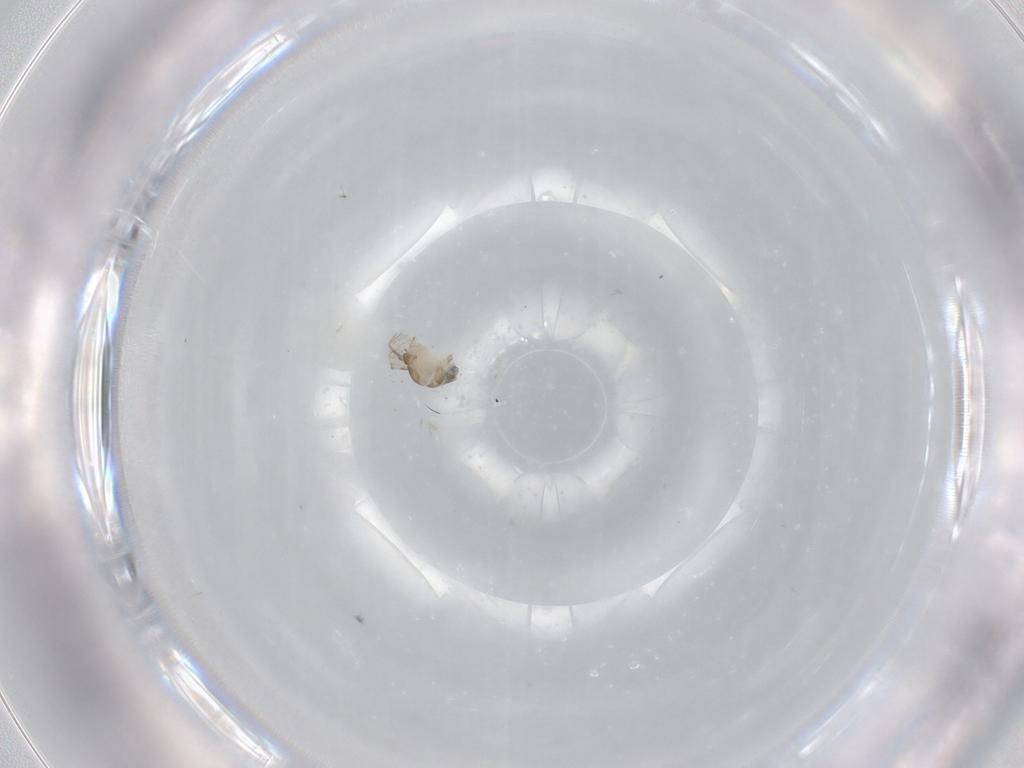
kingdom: Animalia
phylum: Arthropoda
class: Insecta
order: Diptera
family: Psychodidae
